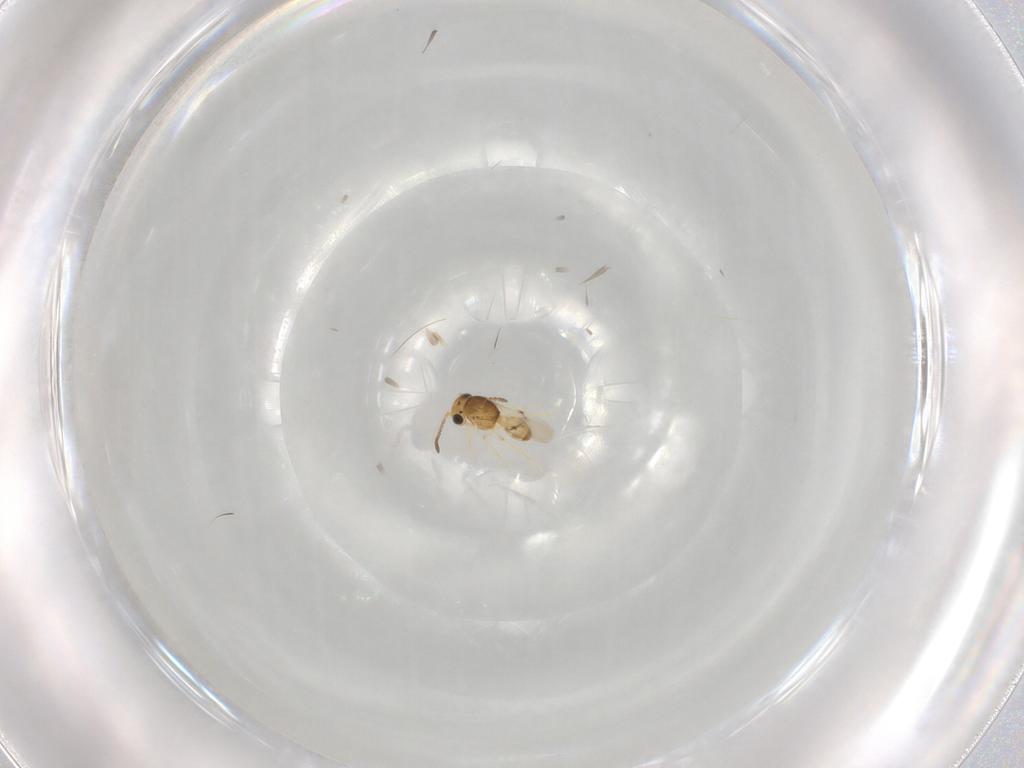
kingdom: Animalia
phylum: Arthropoda
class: Insecta
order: Hymenoptera
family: Scelionidae
